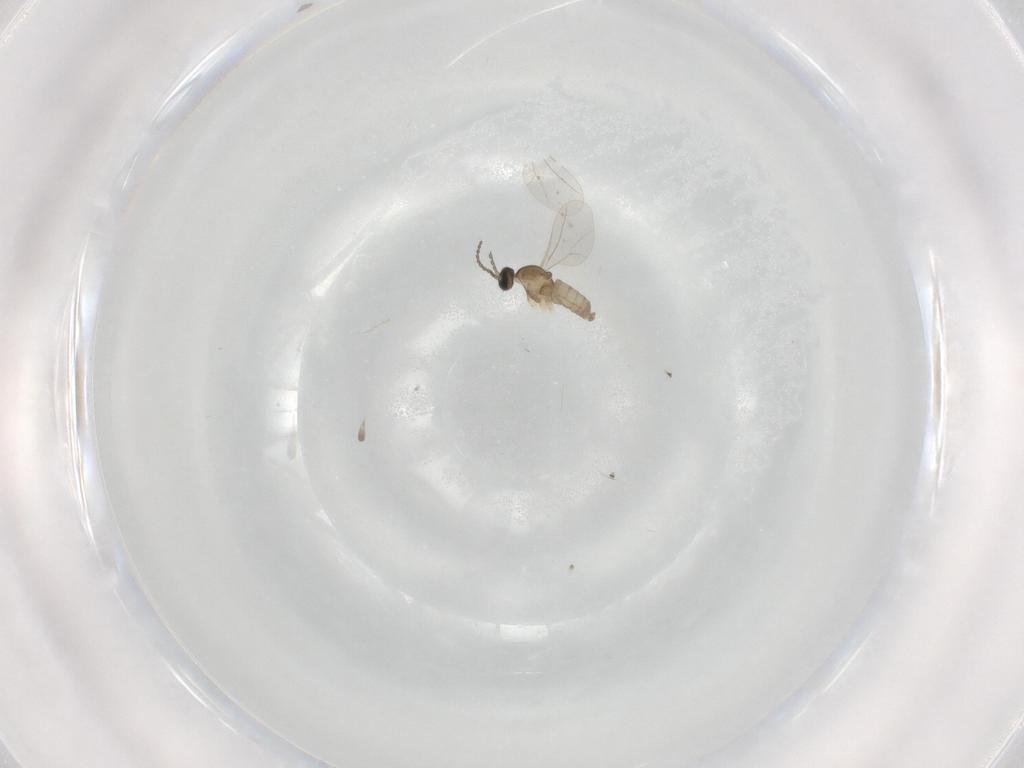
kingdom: Animalia
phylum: Arthropoda
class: Insecta
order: Diptera
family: Cecidomyiidae
